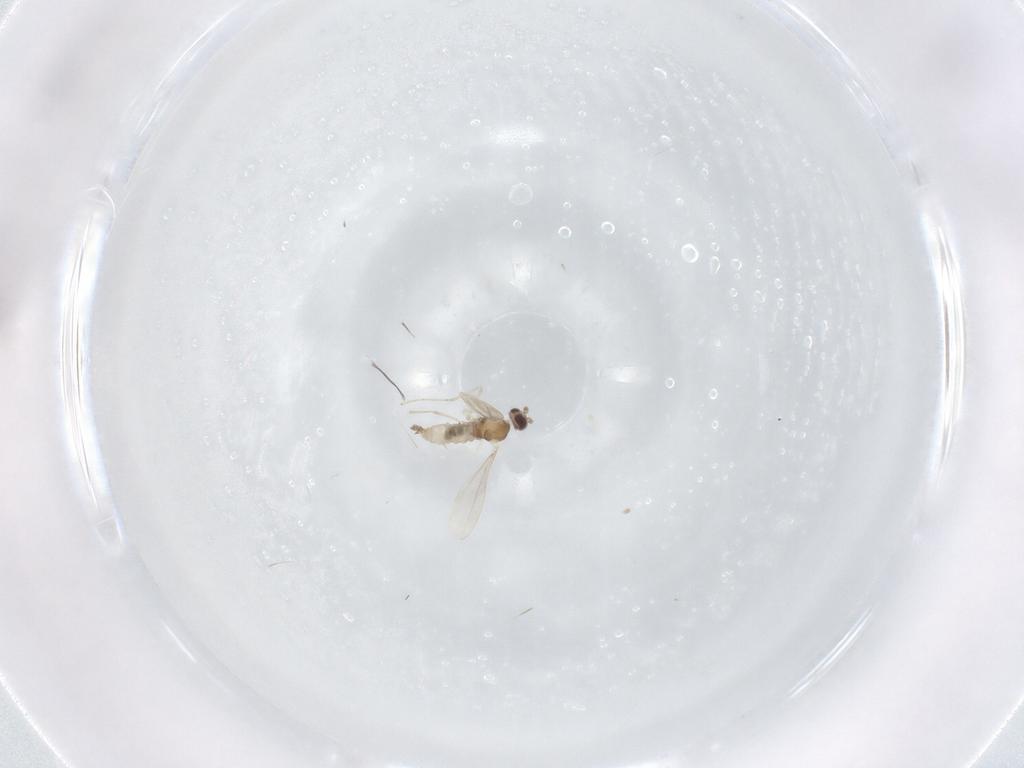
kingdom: Animalia
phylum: Arthropoda
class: Insecta
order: Diptera
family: Cecidomyiidae
